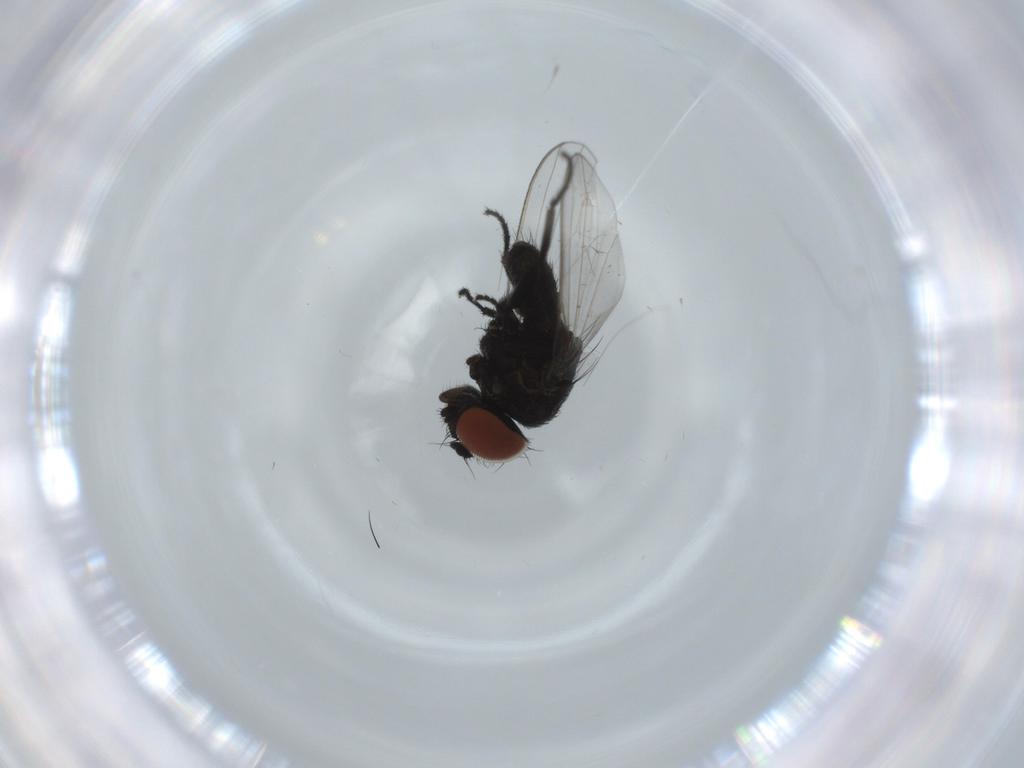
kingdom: Animalia
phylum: Arthropoda
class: Insecta
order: Diptera
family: Milichiidae
